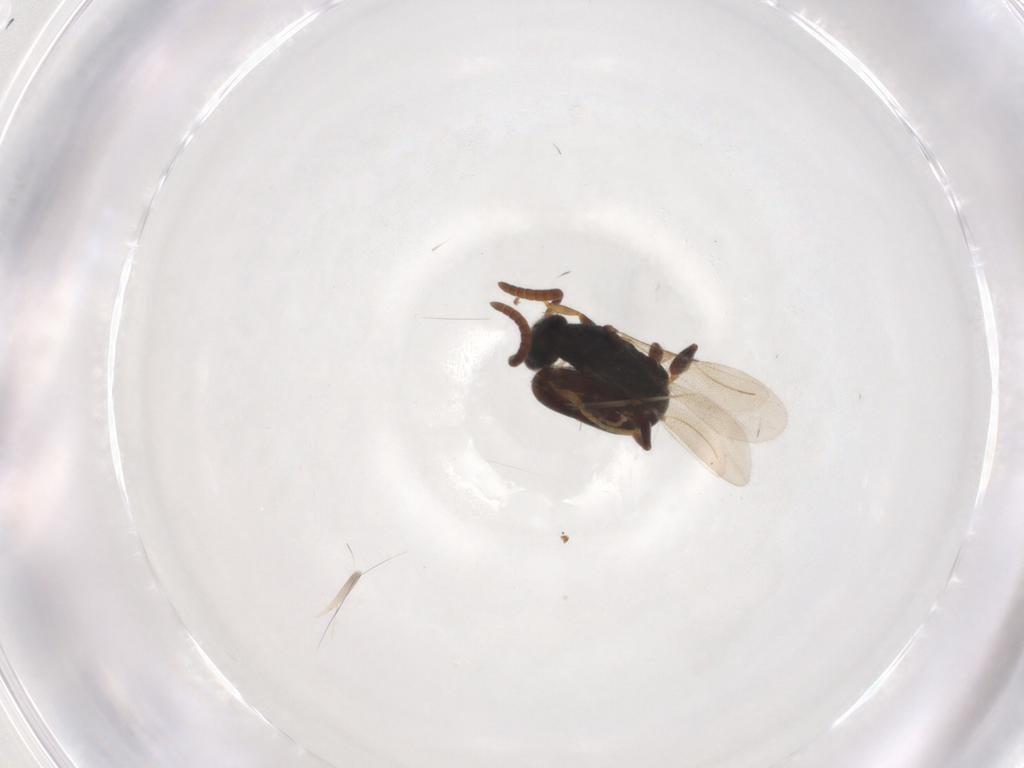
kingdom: Animalia
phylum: Arthropoda
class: Insecta
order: Hymenoptera
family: Bethylidae
